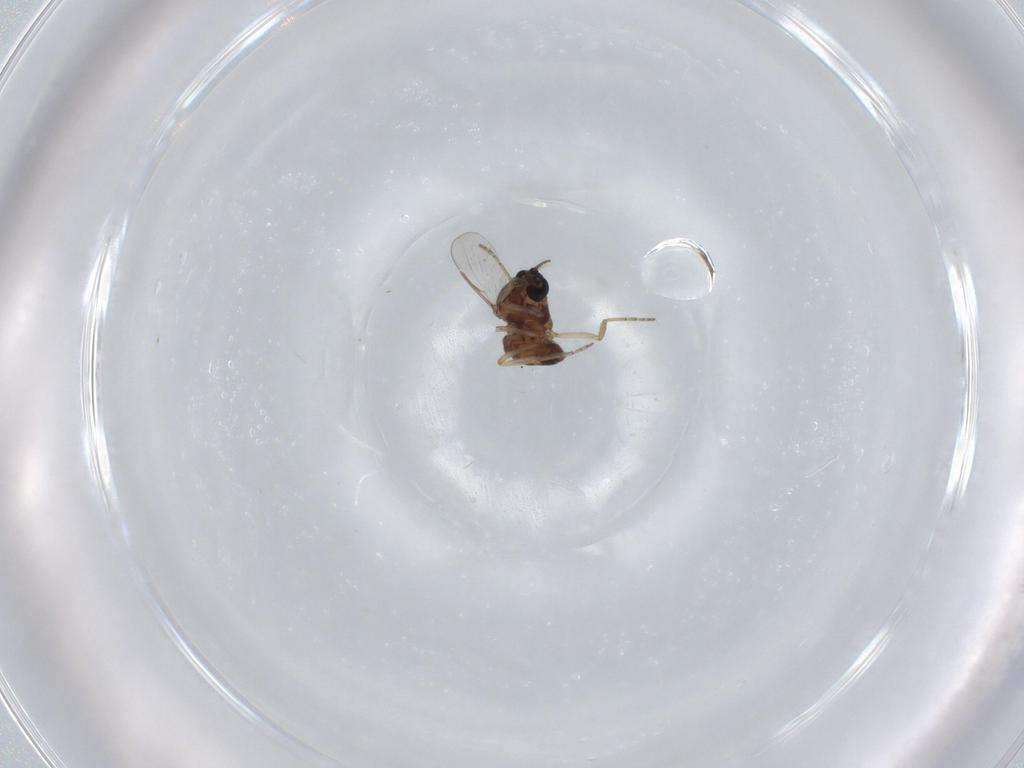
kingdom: Animalia
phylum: Arthropoda
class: Insecta
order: Diptera
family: Ceratopogonidae
